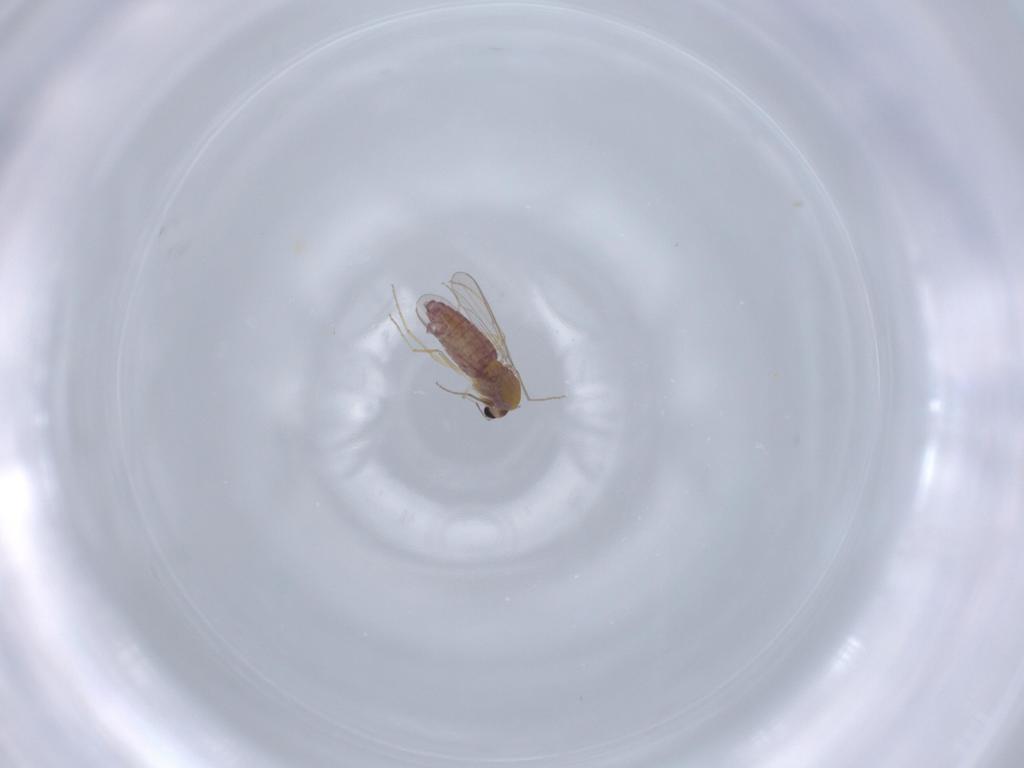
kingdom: Animalia
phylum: Arthropoda
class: Insecta
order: Diptera
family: Chironomidae
